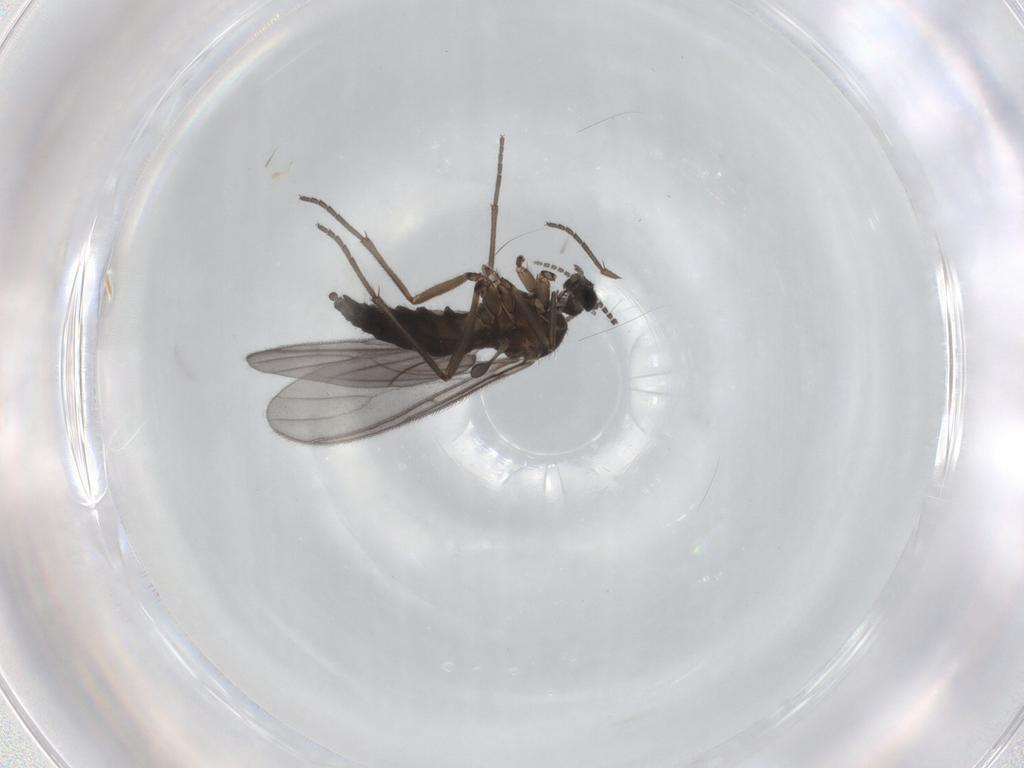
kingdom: Animalia
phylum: Arthropoda
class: Insecta
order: Diptera
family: Sciaridae
